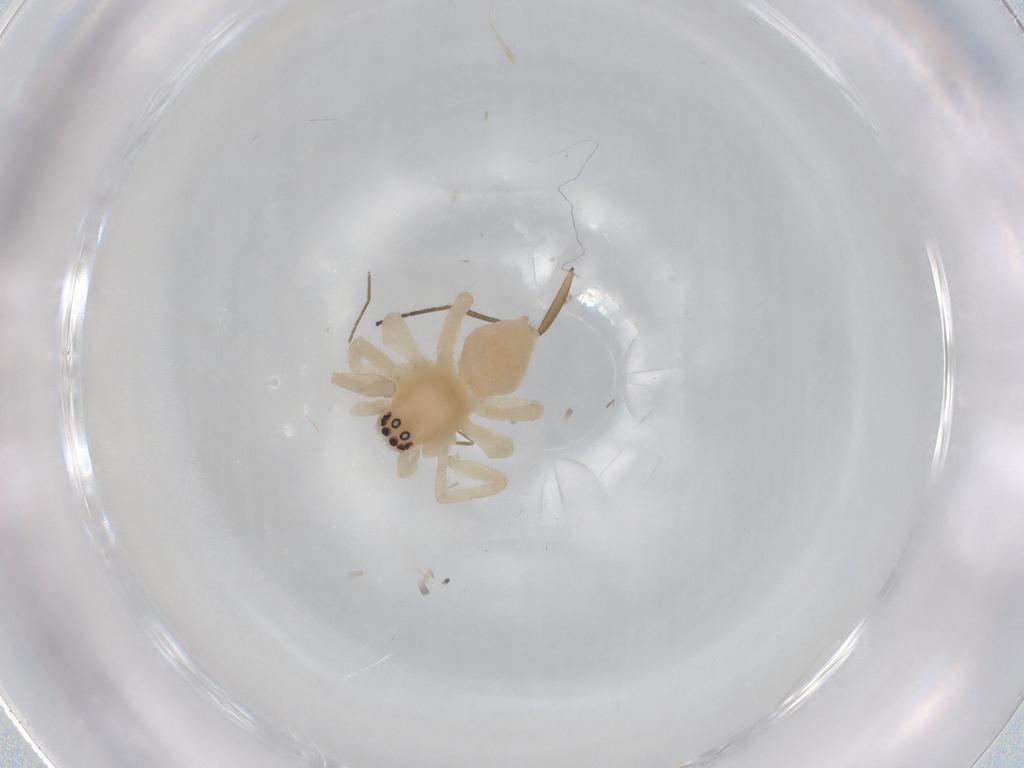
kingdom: Animalia
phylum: Arthropoda
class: Arachnida
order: Araneae
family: Cheiracanthiidae
